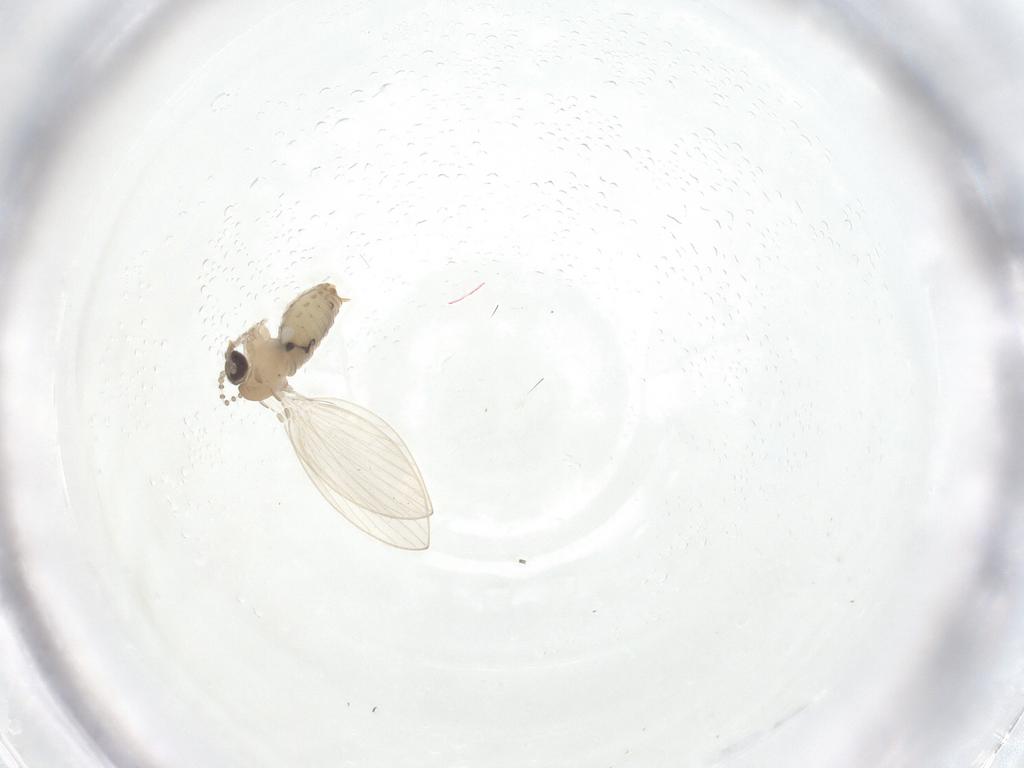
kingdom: Animalia
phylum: Arthropoda
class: Insecta
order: Diptera
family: Psychodidae
